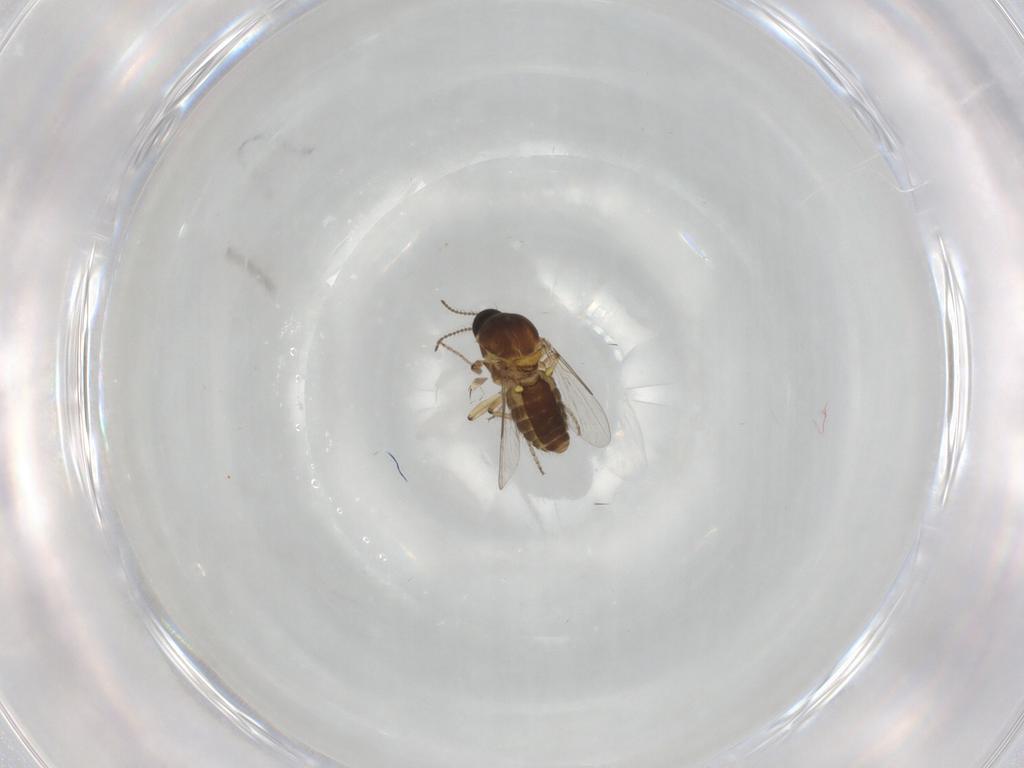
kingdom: Animalia
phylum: Arthropoda
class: Insecta
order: Diptera
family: Ceratopogonidae
